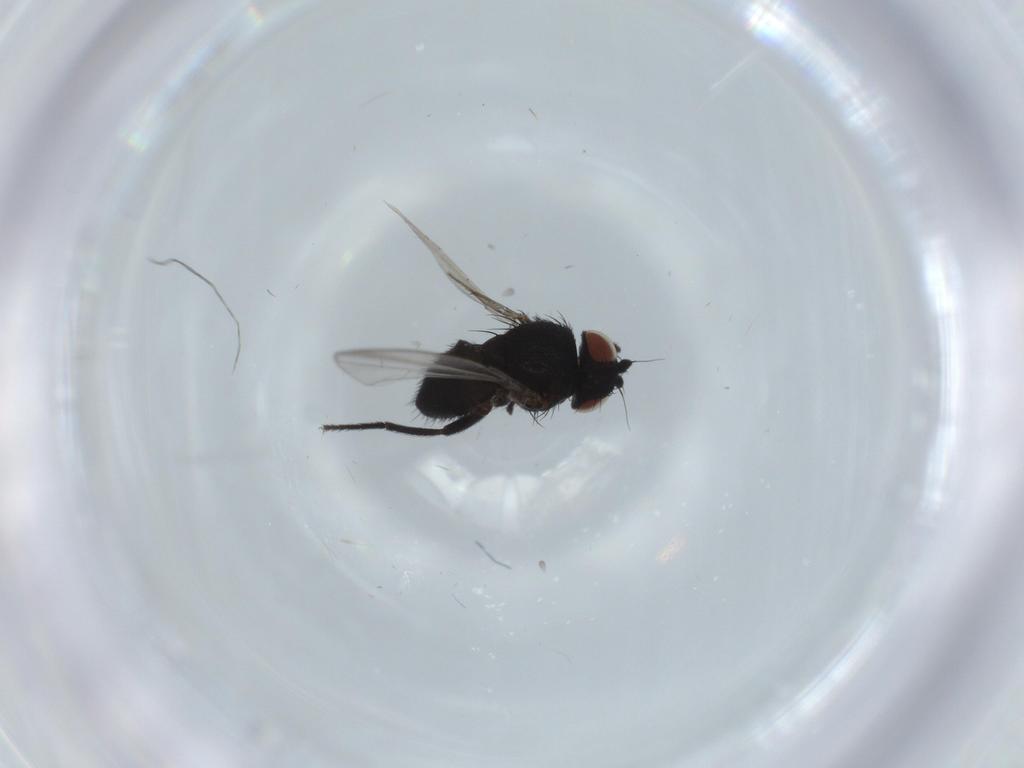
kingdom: Animalia
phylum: Arthropoda
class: Insecta
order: Diptera
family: Milichiidae
